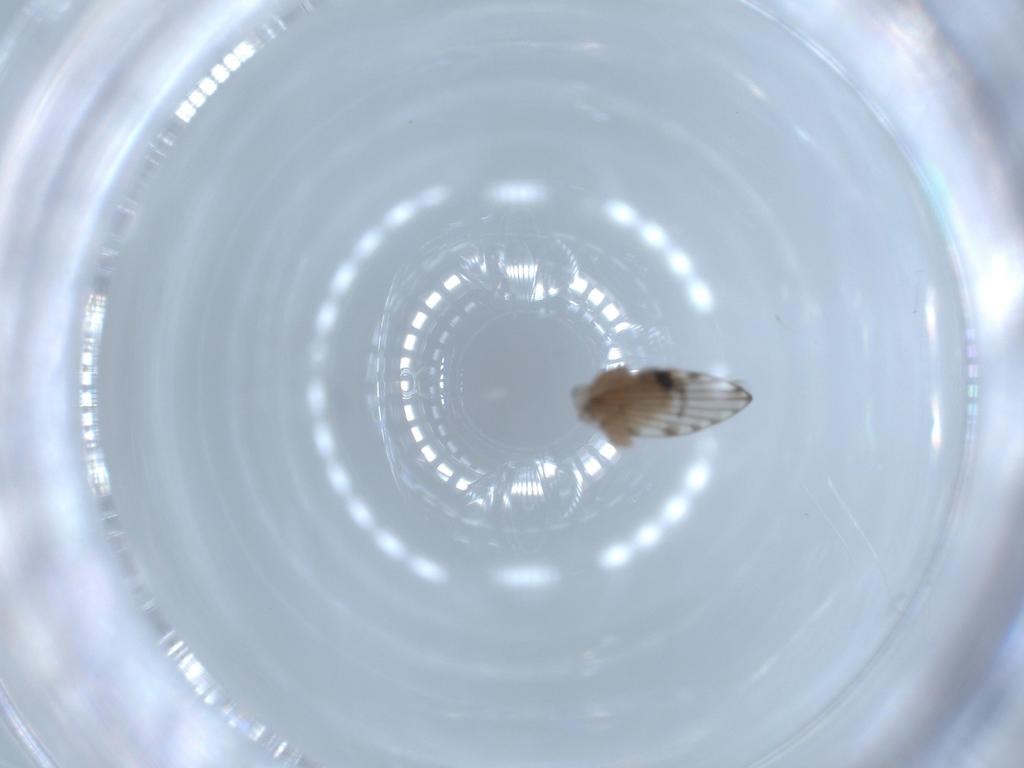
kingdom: Animalia
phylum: Arthropoda
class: Insecta
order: Diptera
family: Psychodidae
